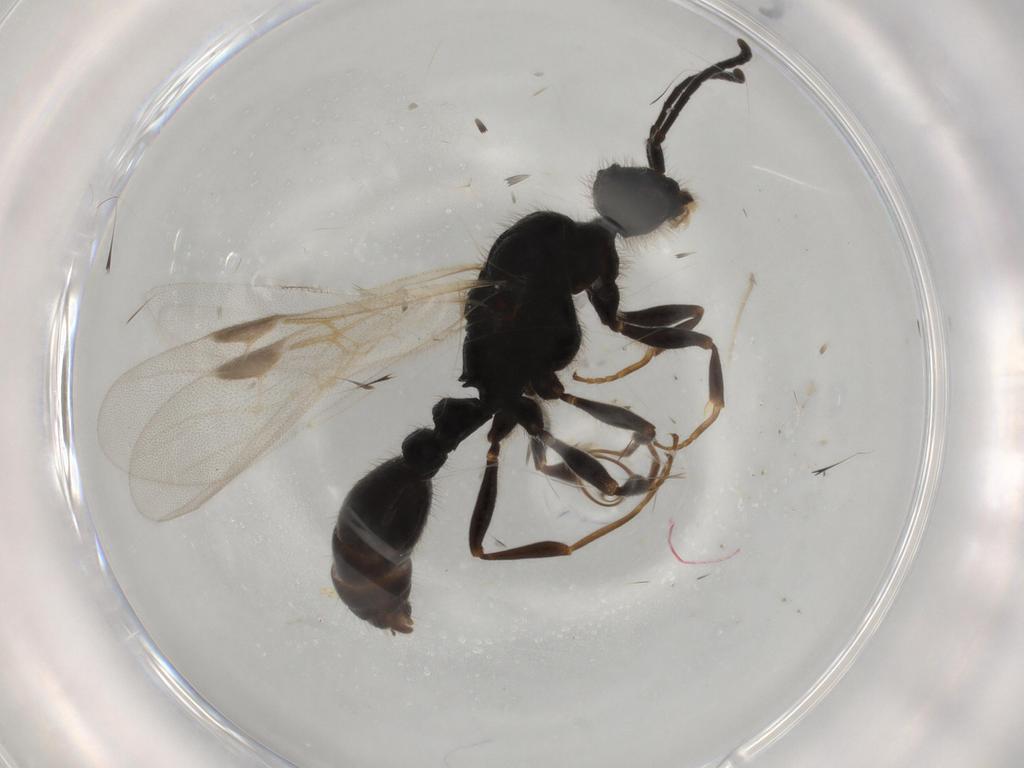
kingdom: Animalia
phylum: Arthropoda
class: Insecta
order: Hymenoptera
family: Formicidae
